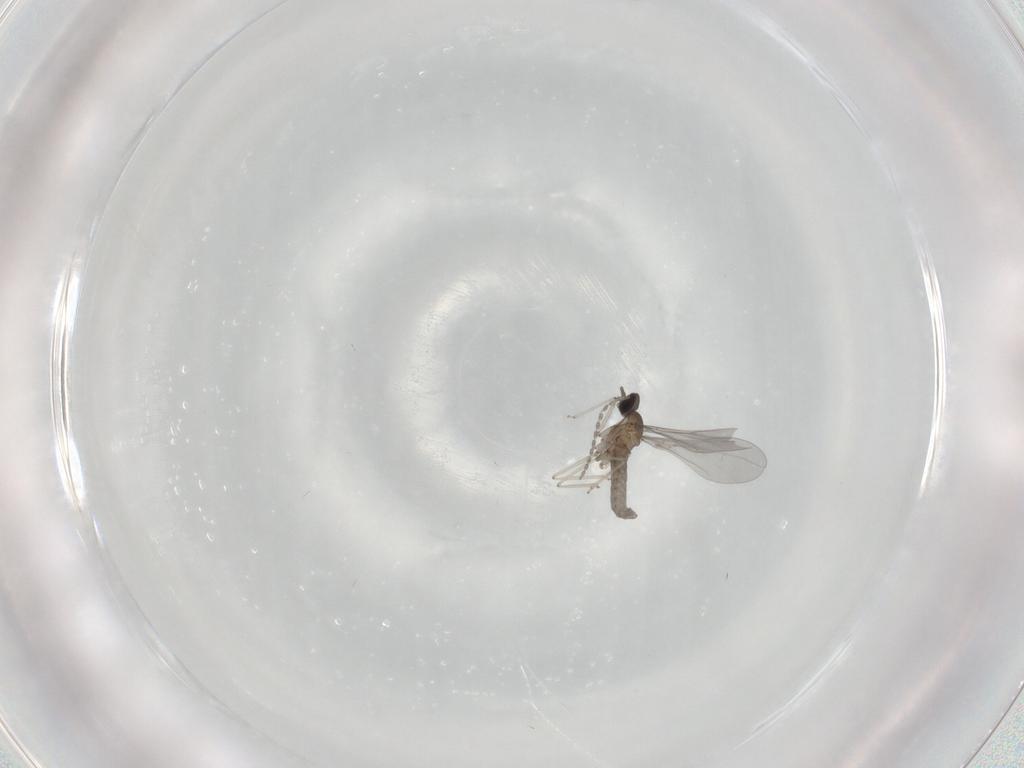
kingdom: Animalia
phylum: Arthropoda
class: Insecta
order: Diptera
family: Cecidomyiidae
